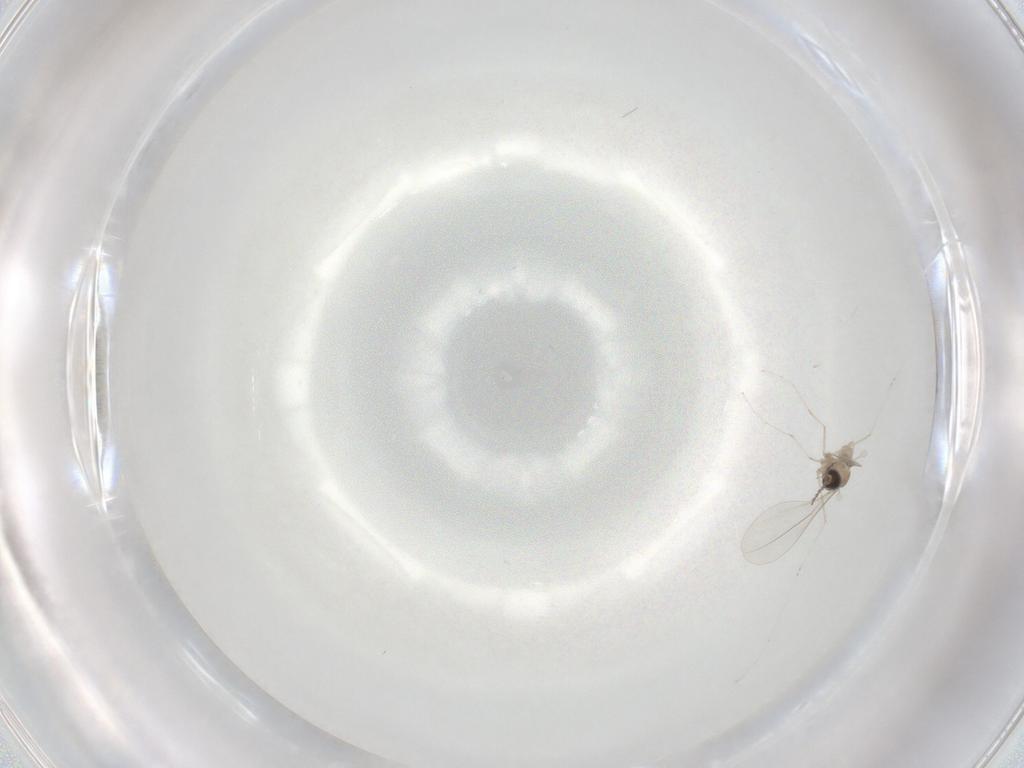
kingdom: Animalia
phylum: Arthropoda
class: Insecta
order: Diptera
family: Cecidomyiidae
